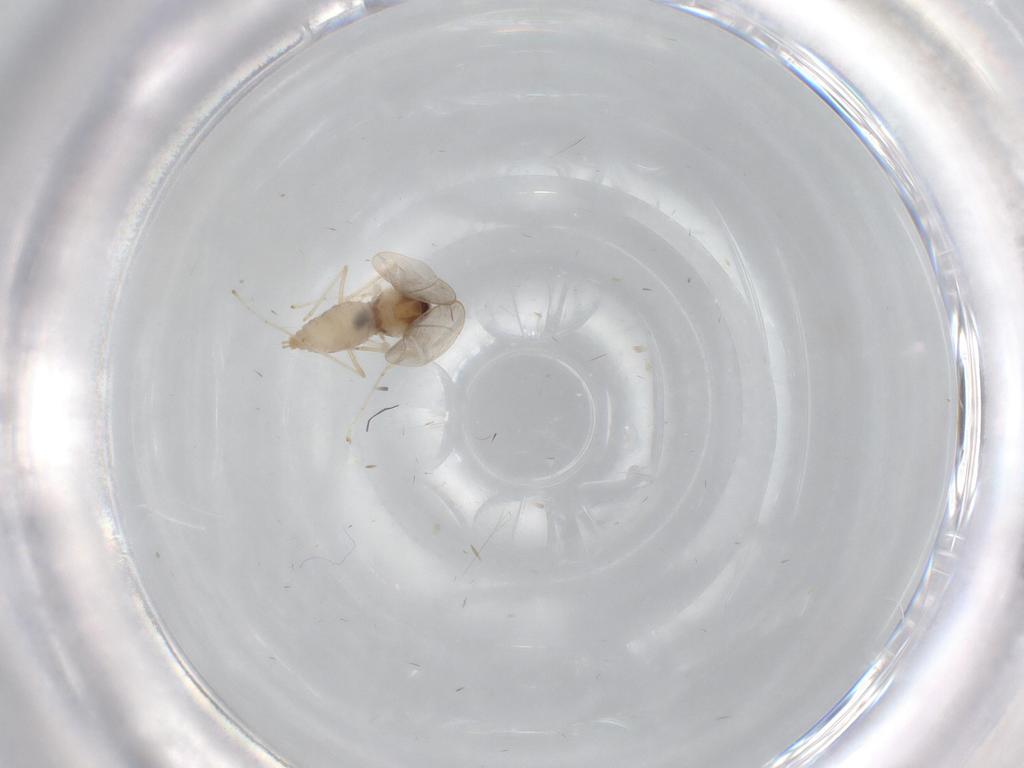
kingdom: Animalia
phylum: Arthropoda
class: Insecta
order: Diptera
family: Cecidomyiidae
